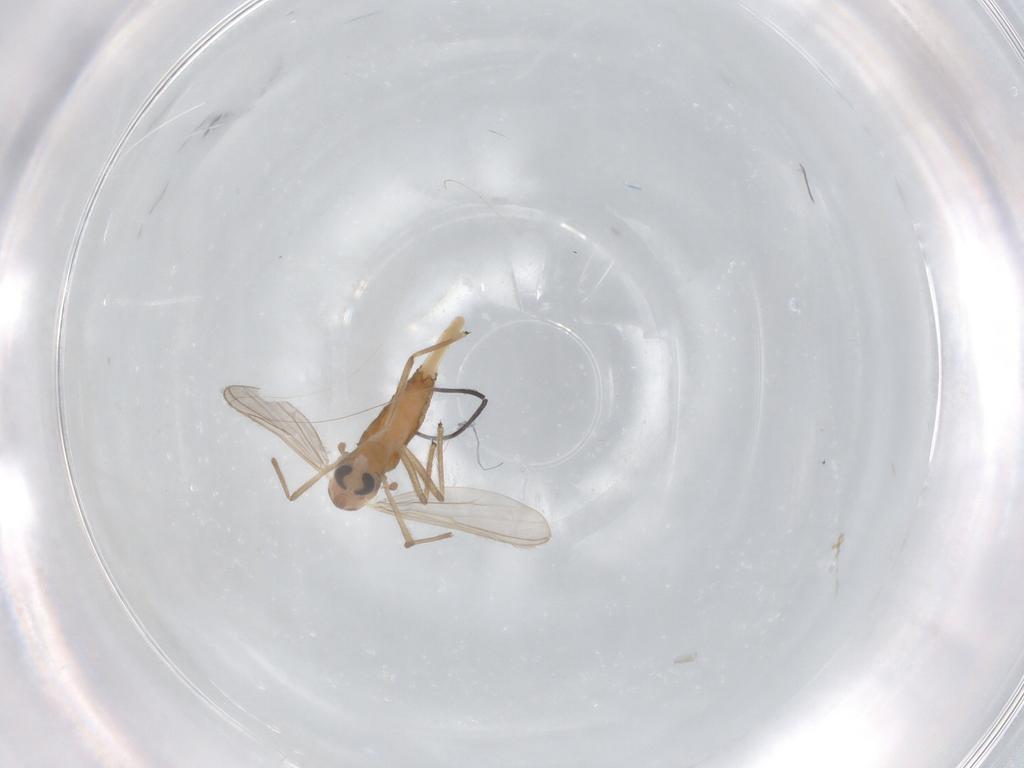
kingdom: Animalia
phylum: Arthropoda
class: Insecta
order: Diptera
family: Chironomidae
